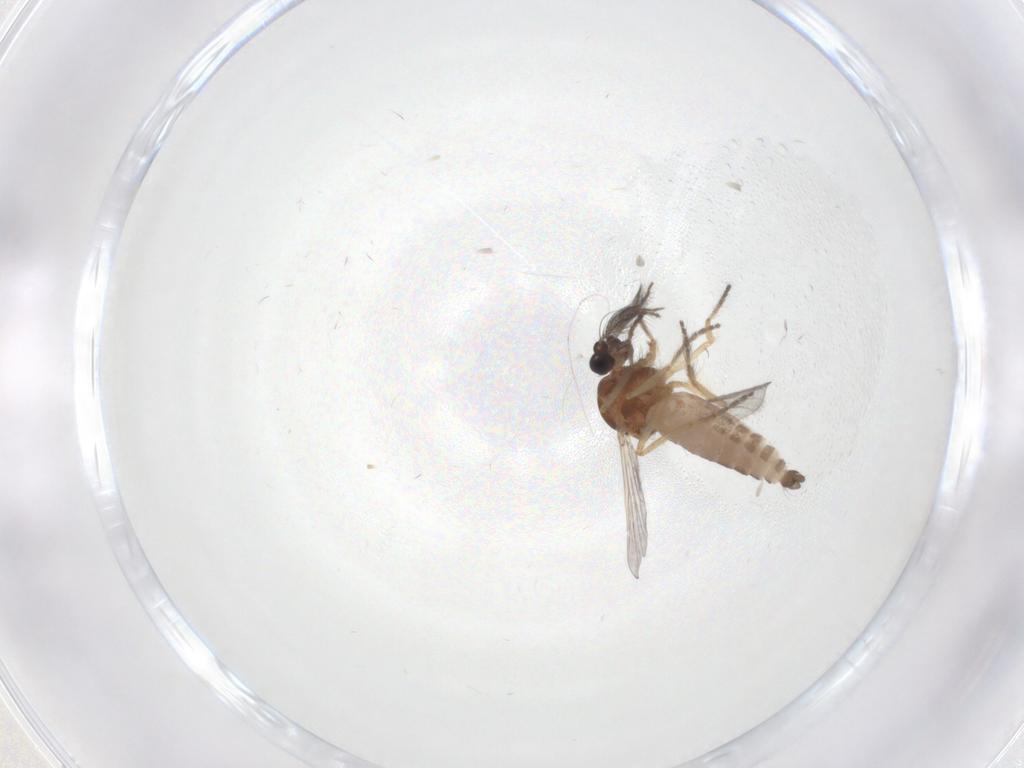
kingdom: Animalia
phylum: Arthropoda
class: Insecta
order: Diptera
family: Ceratopogonidae
